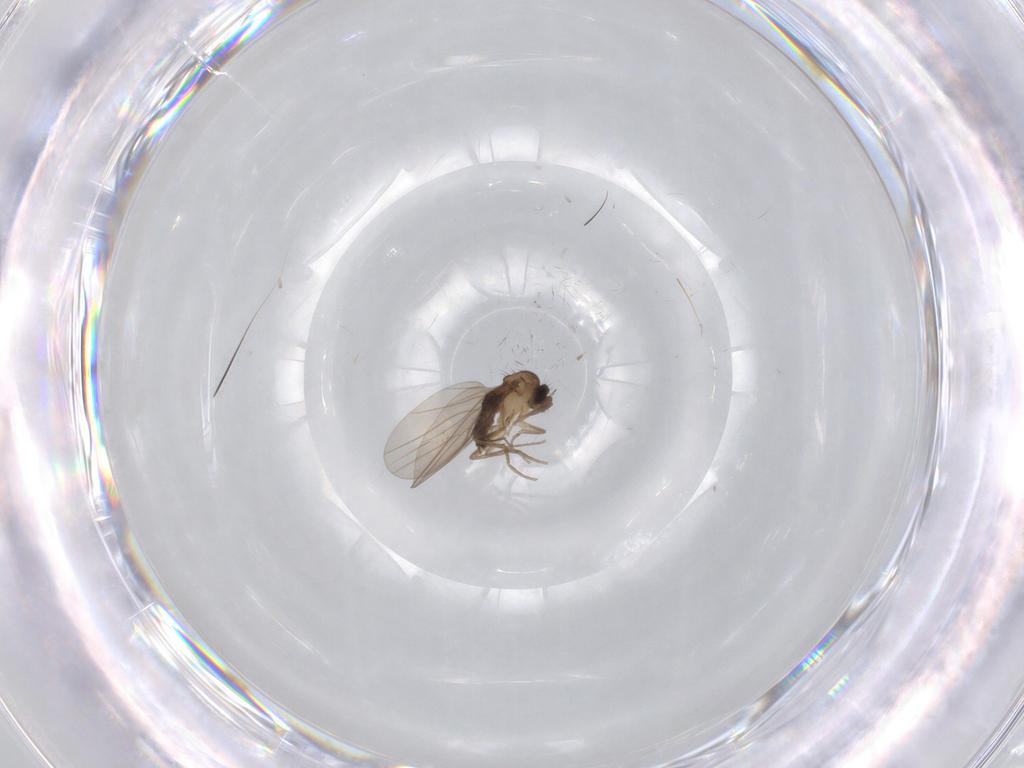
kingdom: Animalia
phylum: Arthropoda
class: Insecta
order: Diptera
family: Phoridae
